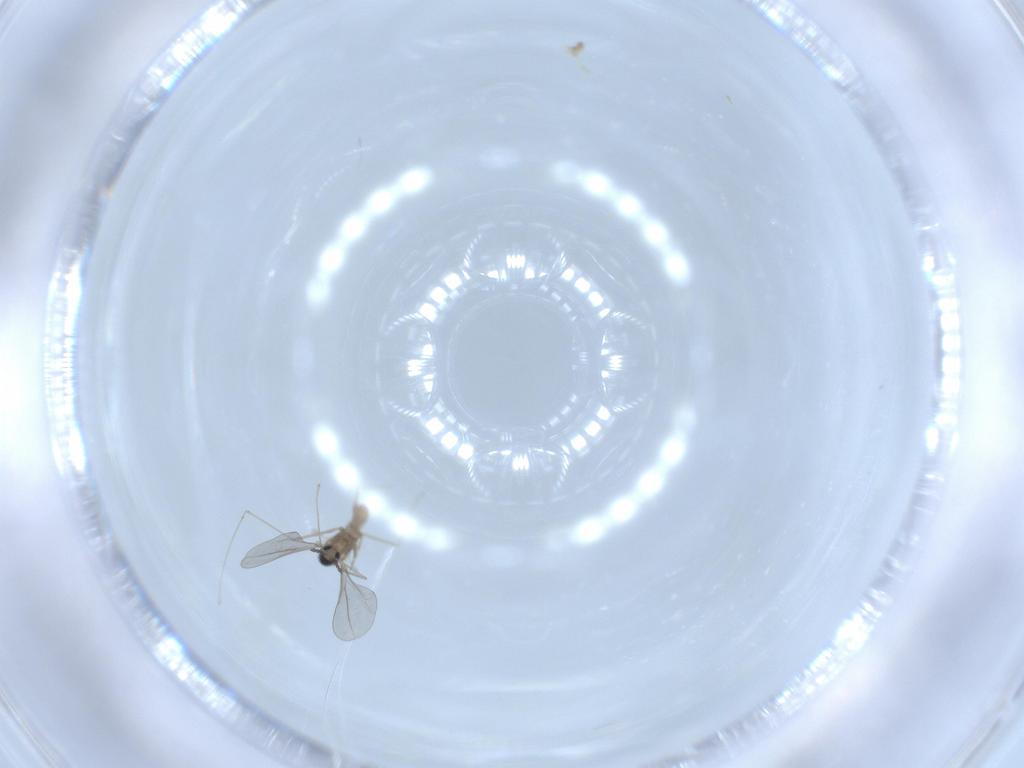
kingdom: Animalia
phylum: Arthropoda
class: Insecta
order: Diptera
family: Sciaridae
